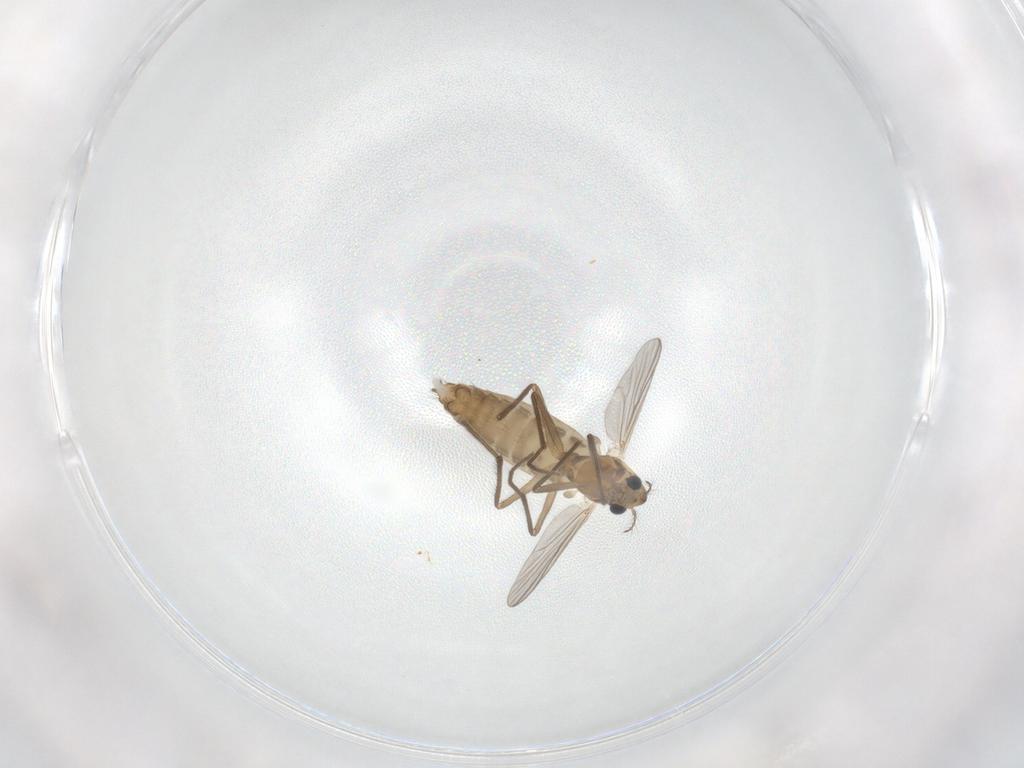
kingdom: Animalia
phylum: Arthropoda
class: Insecta
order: Diptera
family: Chironomidae
